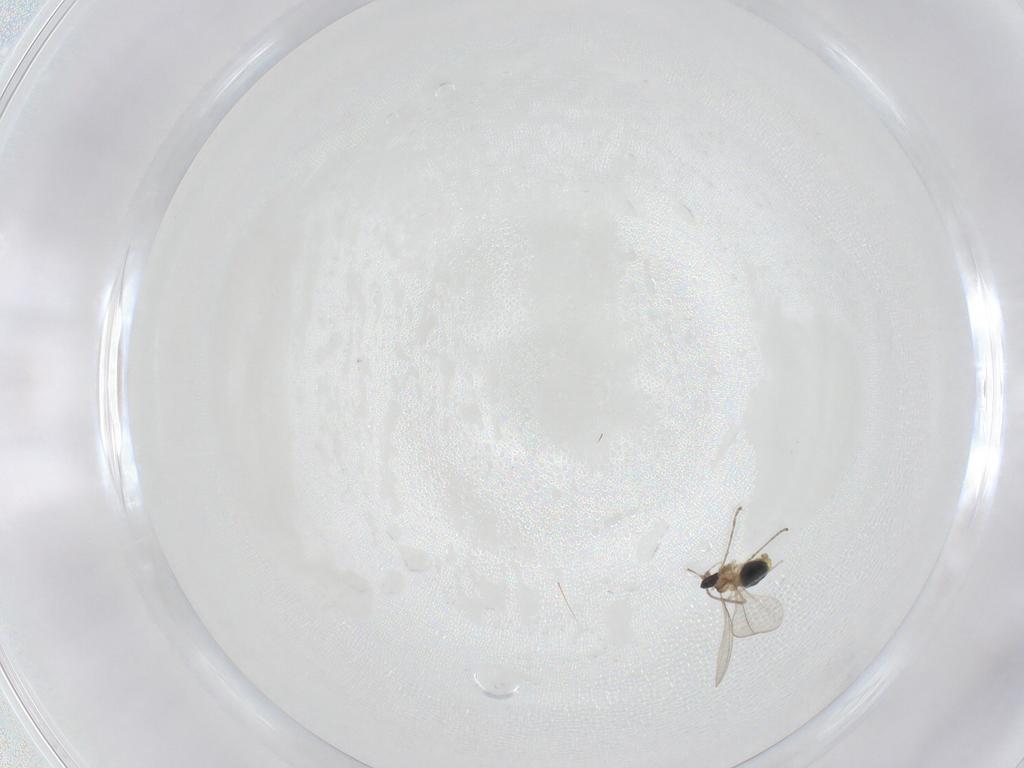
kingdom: Animalia
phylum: Arthropoda
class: Insecta
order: Diptera
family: Cecidomyiidae
